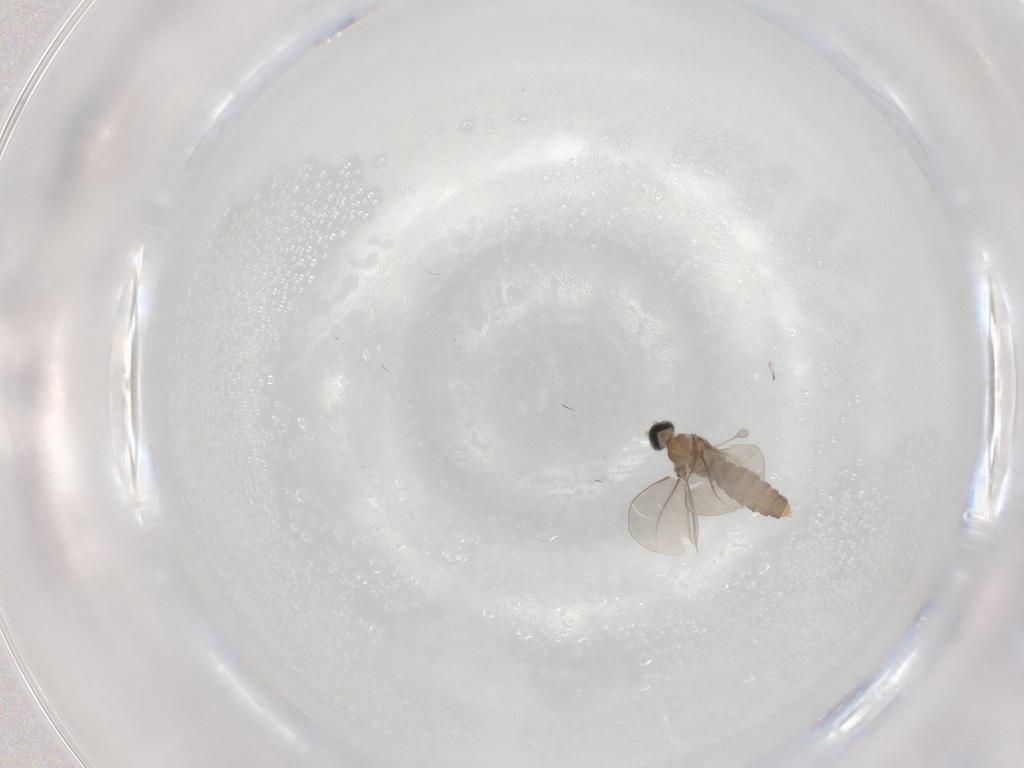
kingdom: Animalia
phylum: Arthropoda
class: Insecta
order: Diptera
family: Cecidomyiidae
